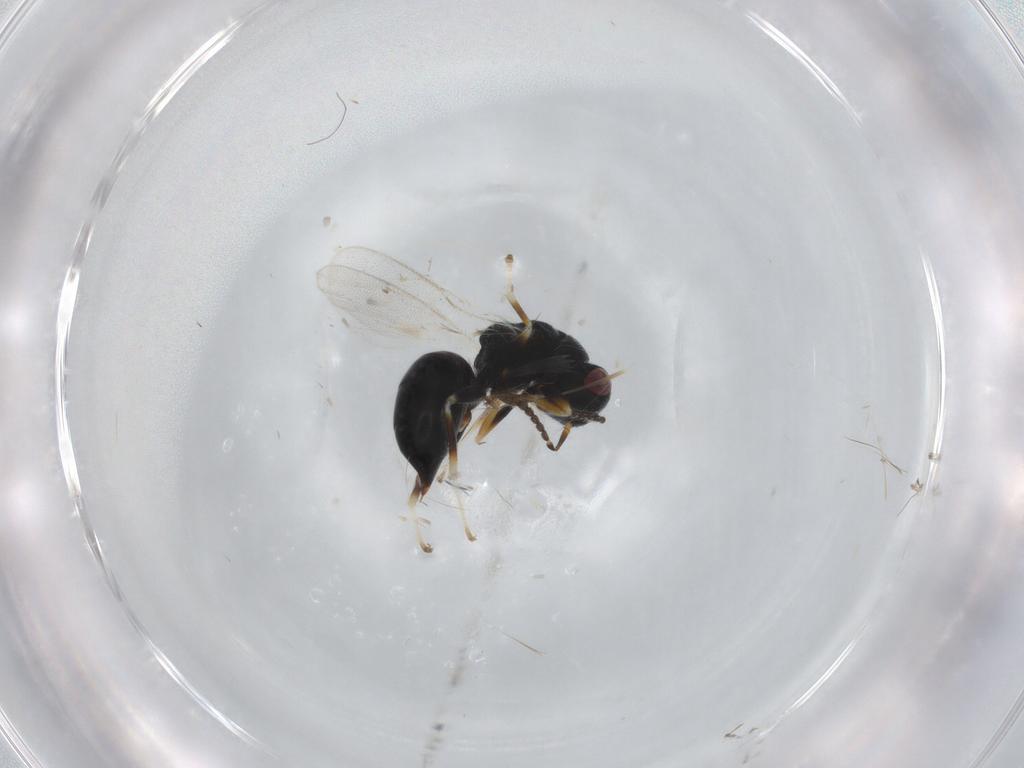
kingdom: Animalia
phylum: Arthropoda
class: Insecta
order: Hymenoptera
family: Eurytomidae
